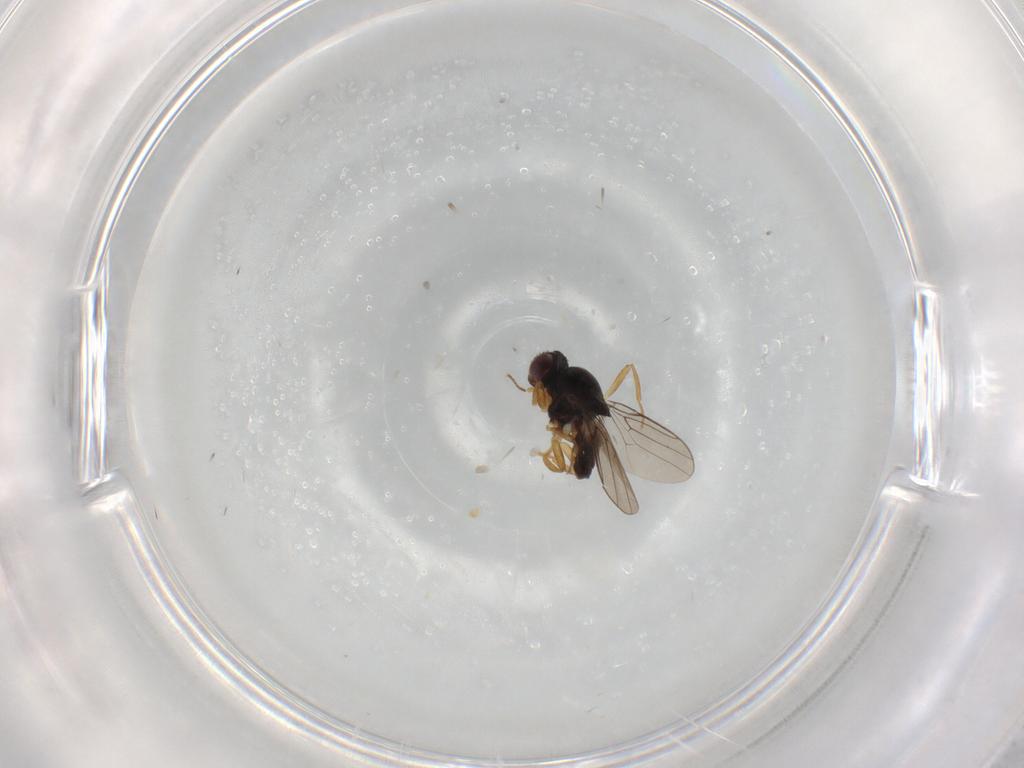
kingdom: Animalia
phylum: Arthropoda
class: Insecta
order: Diptera
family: Chloropidae
